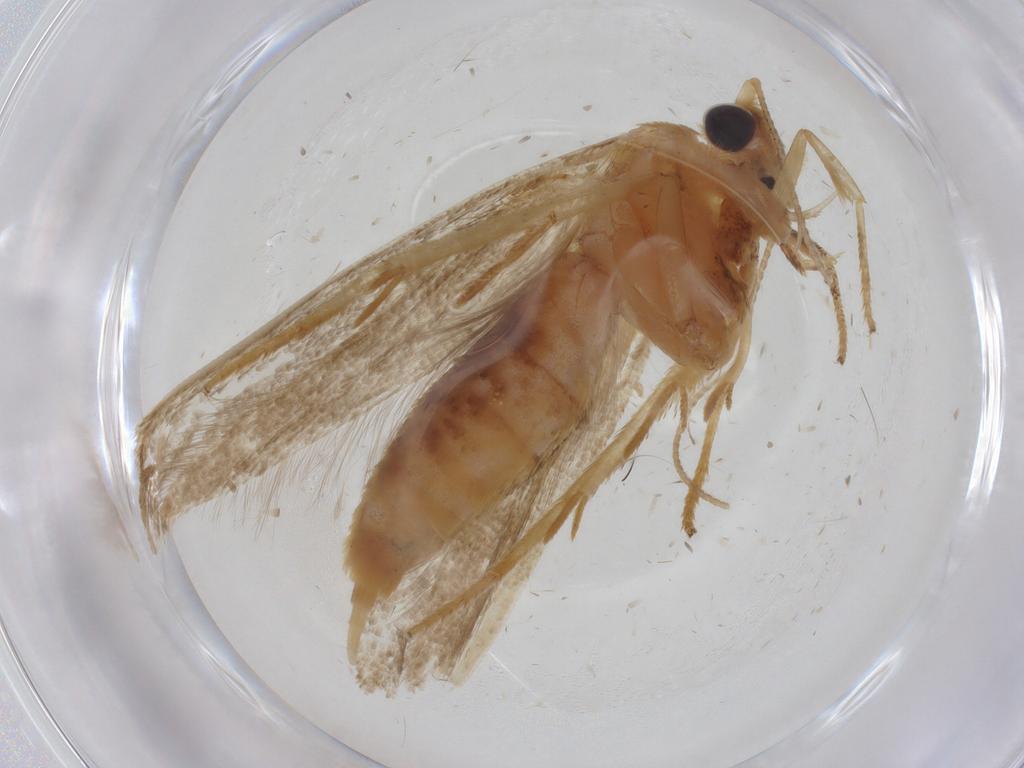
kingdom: Animalia
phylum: Arthropoda
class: Insecta
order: Lepidoptera
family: Blastobasidae
